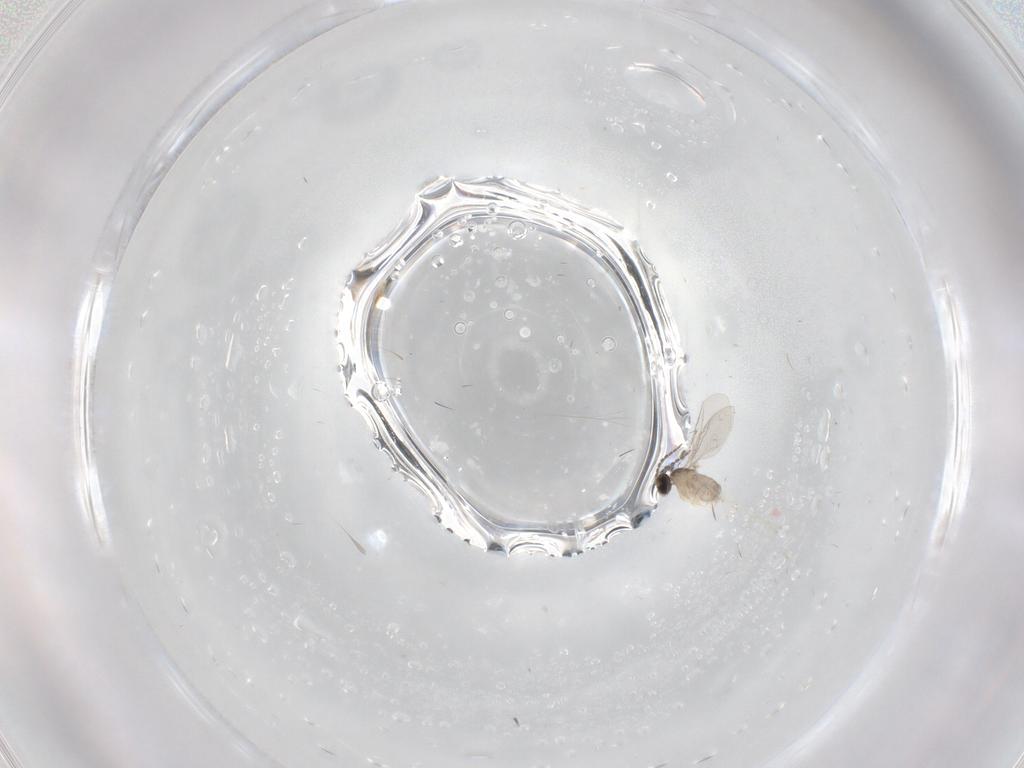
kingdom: Animalia
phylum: Arthropoda
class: Insecta
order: Diptera
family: Cecidomyiidae
